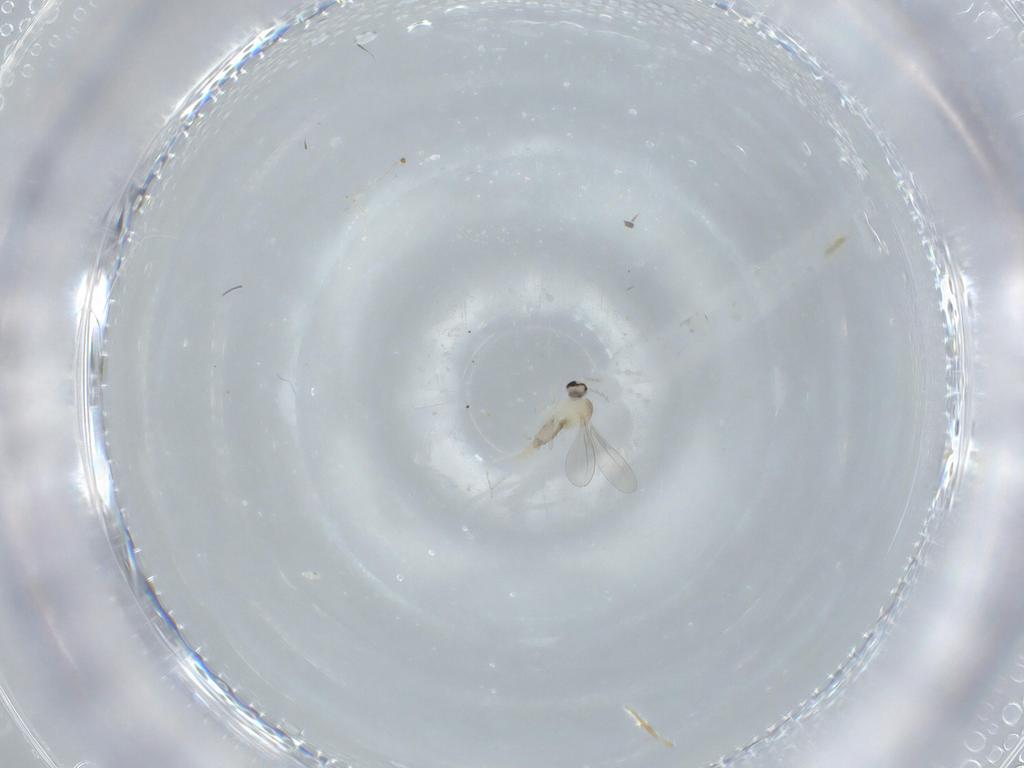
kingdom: Animalia
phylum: Arthropoda
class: Insecta
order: Diptera
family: Cecidomyiidae
